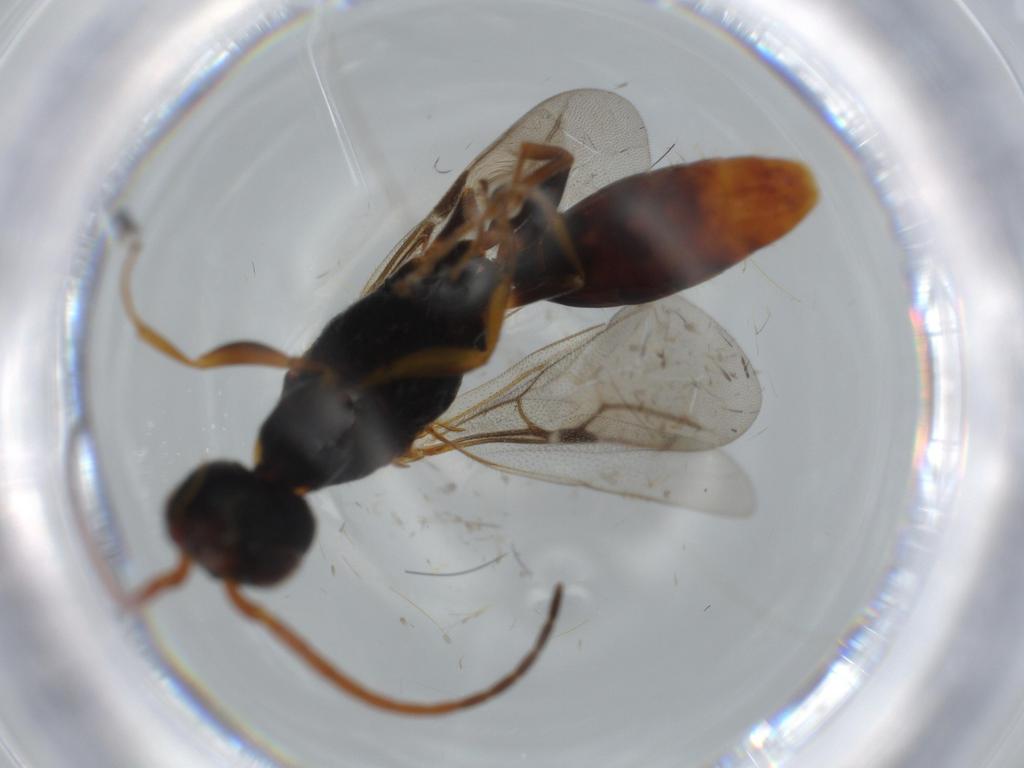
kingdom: Animalia
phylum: Arthropoda
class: Insecta
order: Hymenoptera
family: Bethylidae
